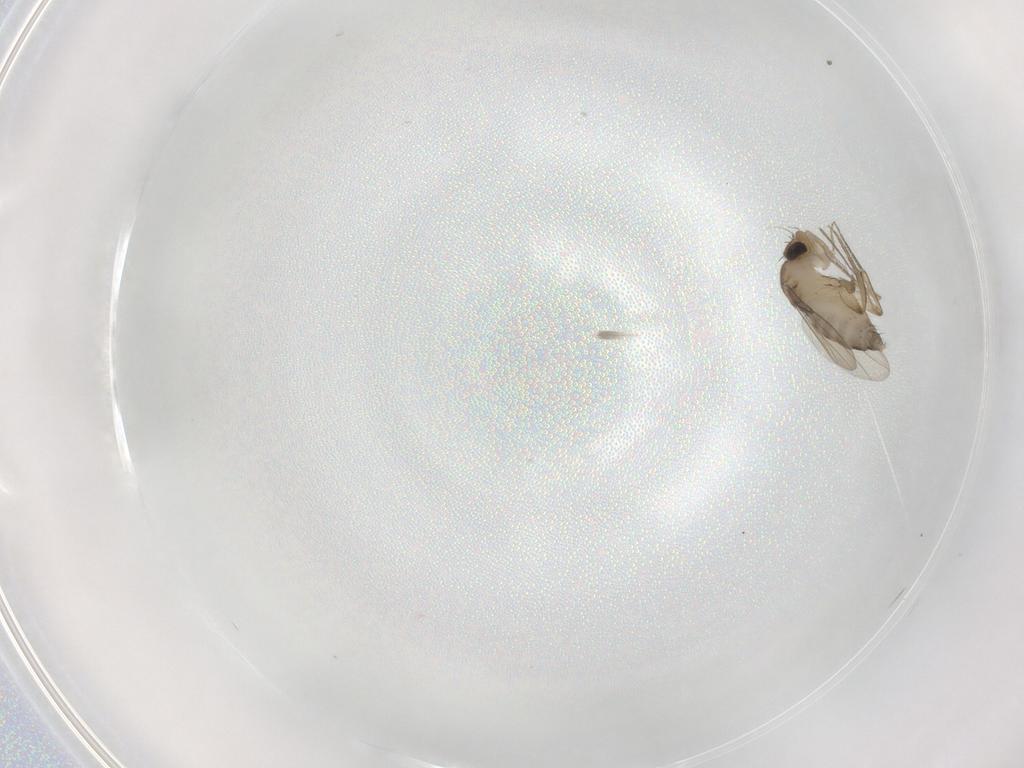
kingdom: Animalia
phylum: Arthropoda
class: Insecta
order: Diptera
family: Phoridae
